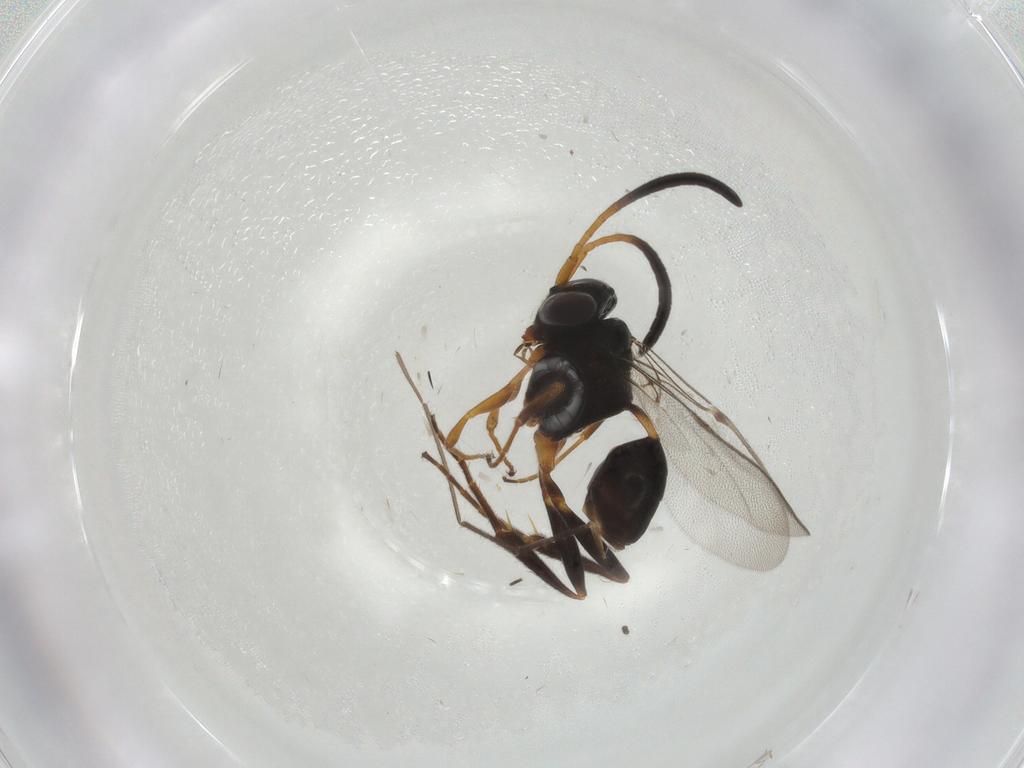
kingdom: Animalia
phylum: Arthropoda
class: Insecta
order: Hymenoptera
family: Evaniidae
